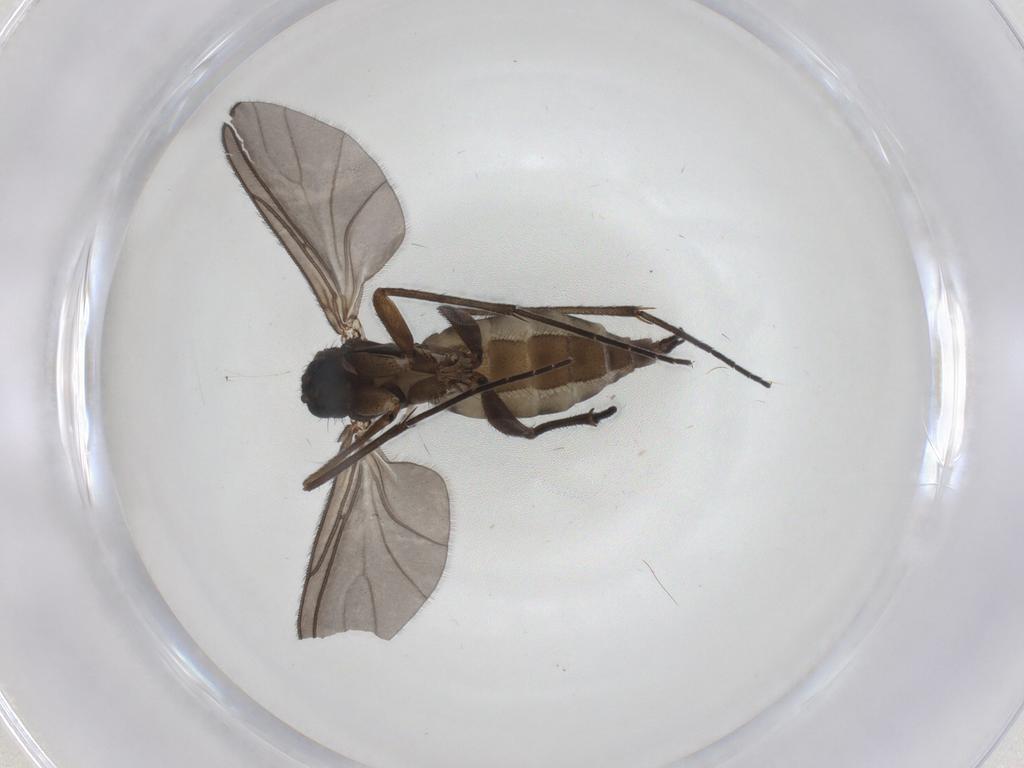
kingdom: Animalia
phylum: Arthropoda
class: Insecta
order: Diptera
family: Sciaridae
